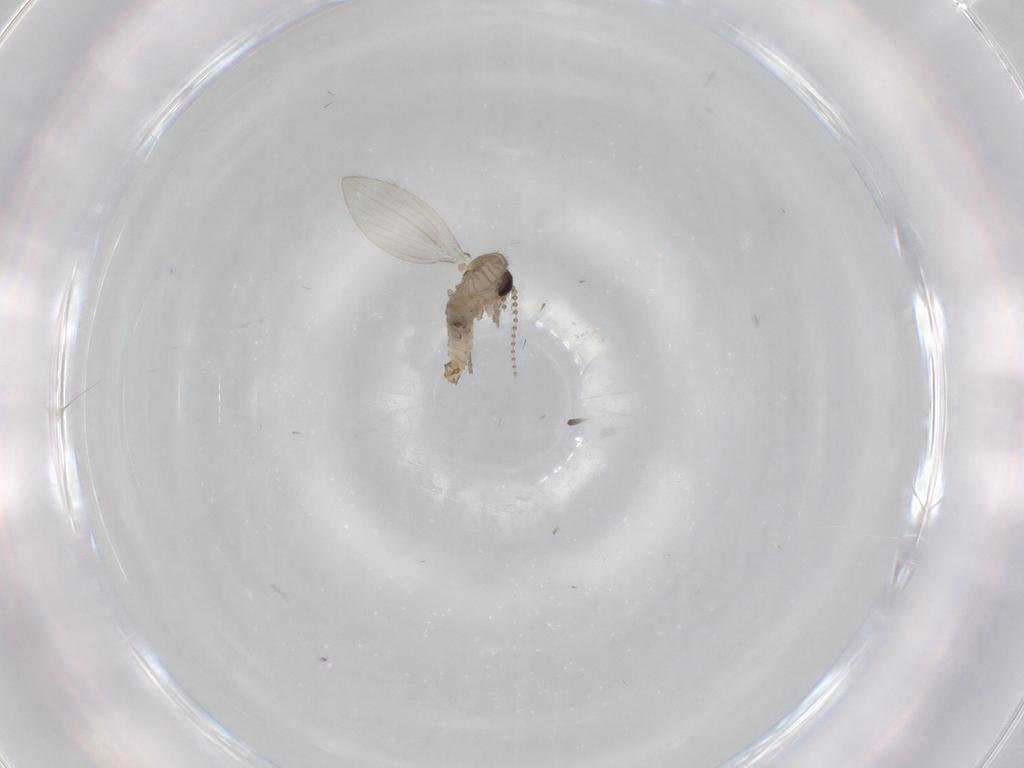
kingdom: Animalia
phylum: Arthropoda
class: Insecta
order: Diptera
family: Psychodidae
